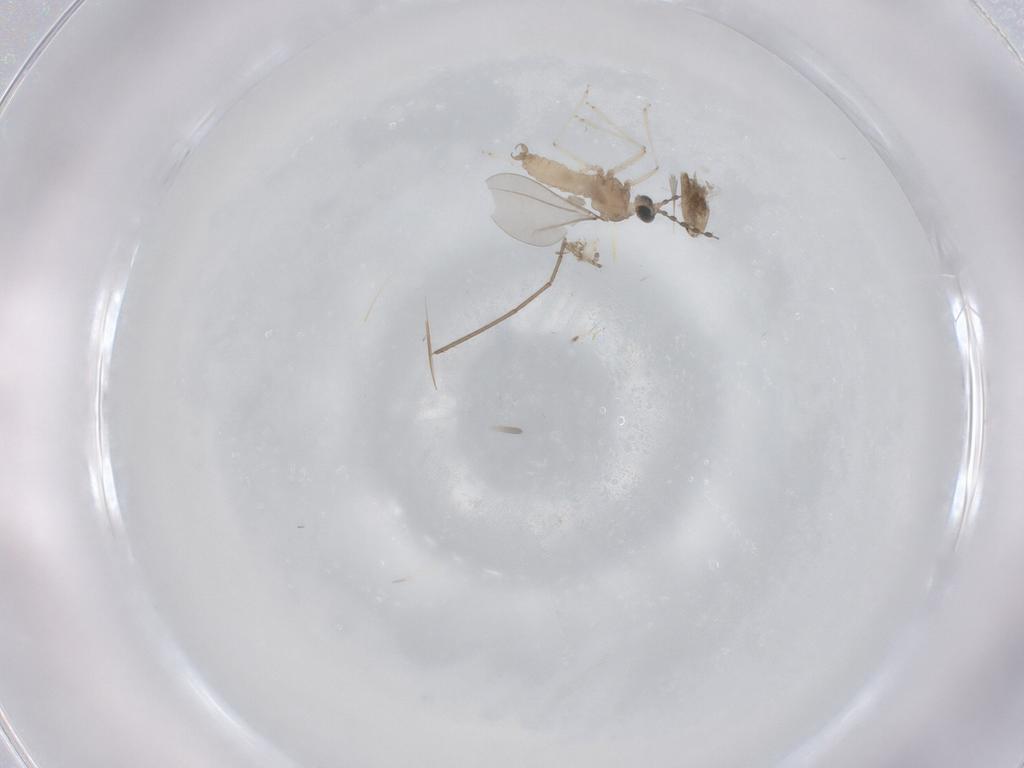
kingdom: Animalia
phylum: Arthropoda
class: Insecta
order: Diptera
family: Cecidomyiidae
